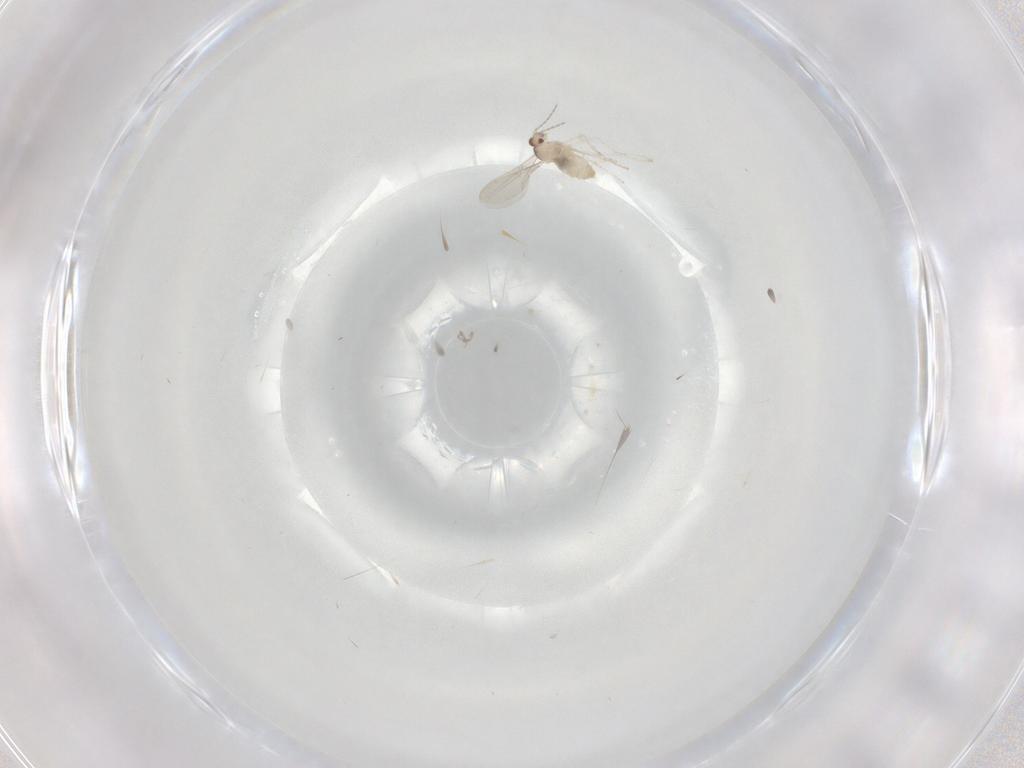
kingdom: Animalia
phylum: Arthropoda
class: Insecta
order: Diptera
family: Cecidomyiidae
